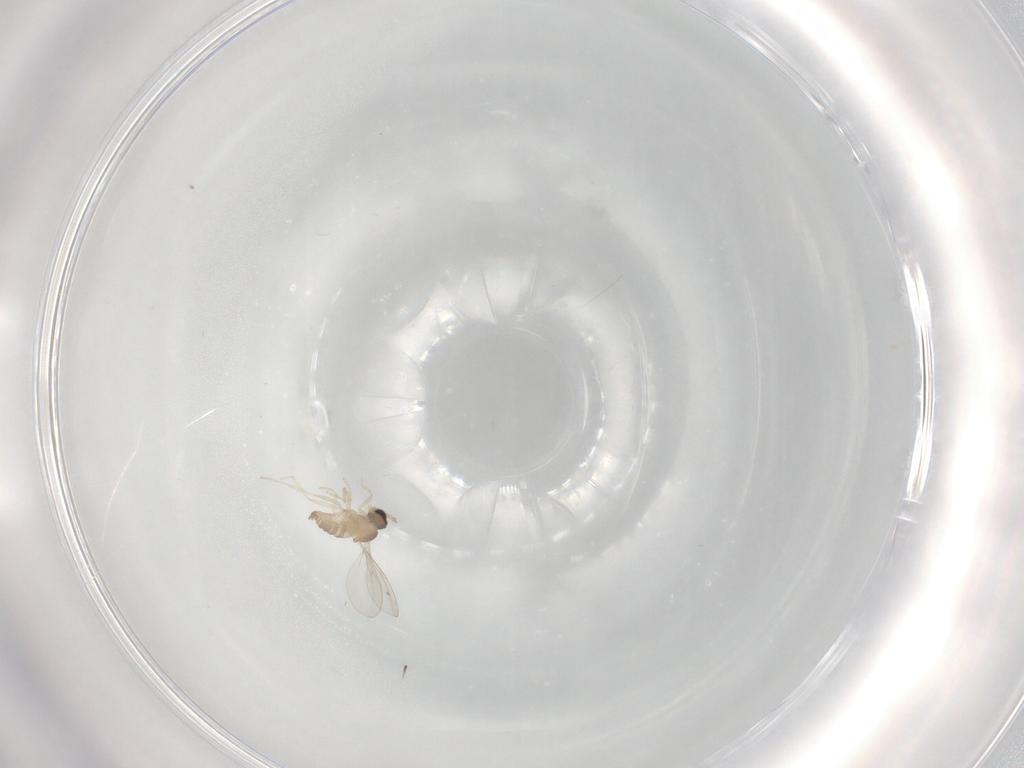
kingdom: Animalia
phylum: Arthropoda
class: Insecta
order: Diptera
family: Cecidomyiidae
